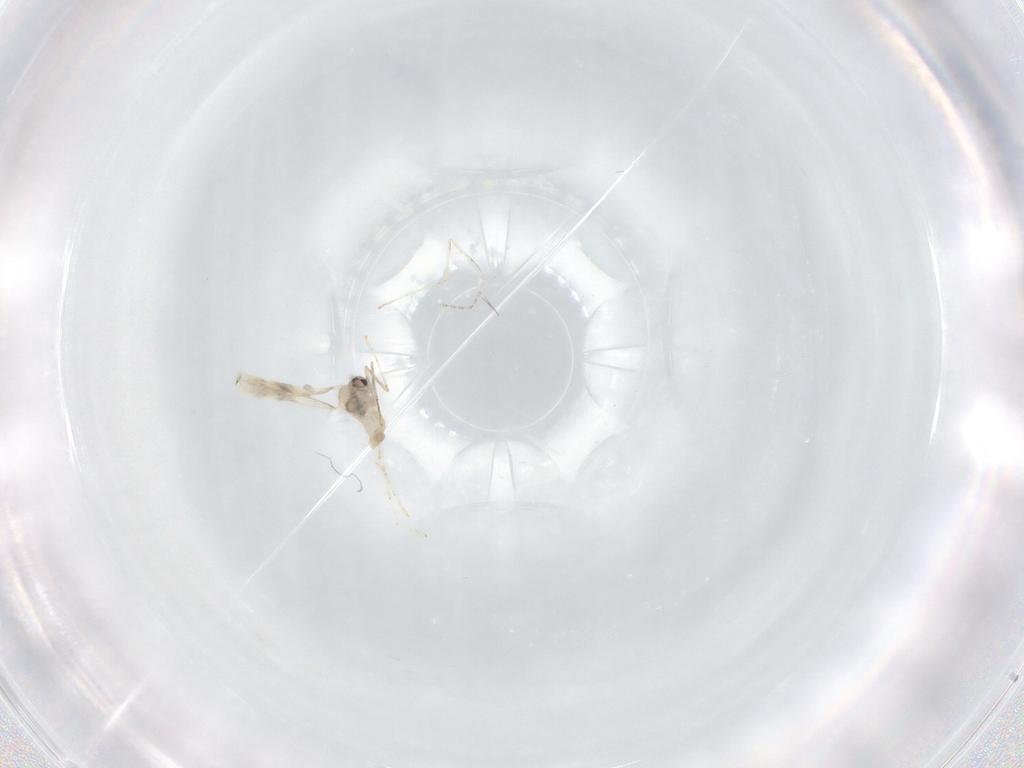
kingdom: Animalia
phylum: Arthropoda
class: Insecta
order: Diptera
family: Cecidomyiidae
